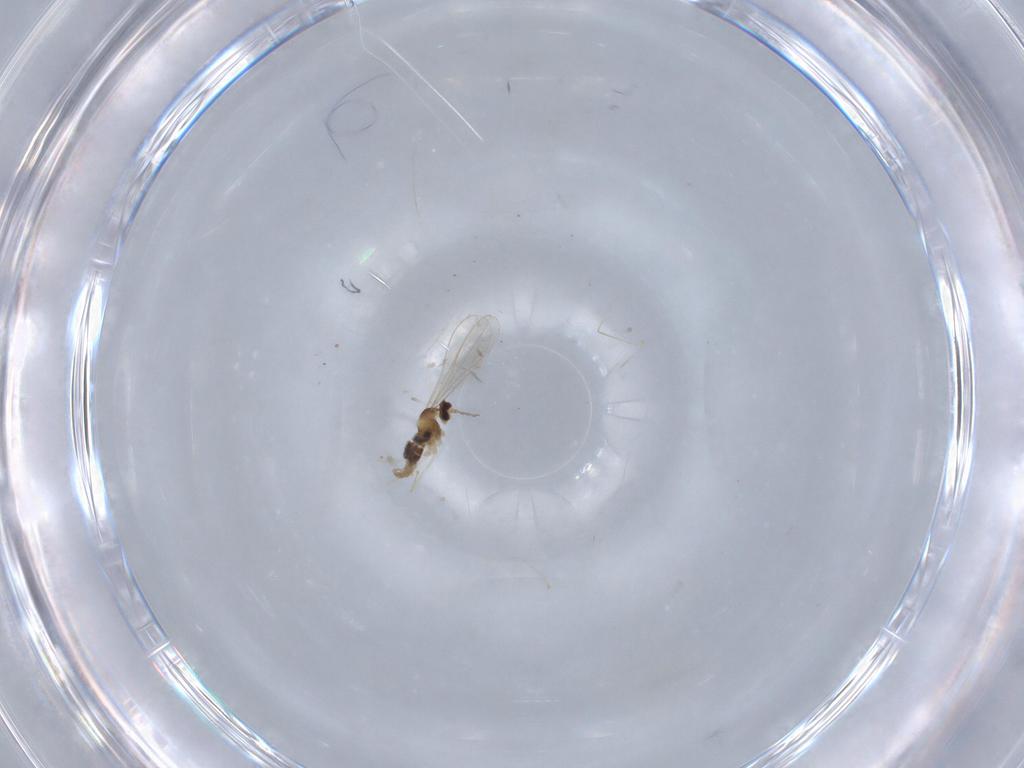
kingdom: Animalia
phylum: Arthropoda
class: Insecta
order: Diptera
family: Cecidomyiidae
